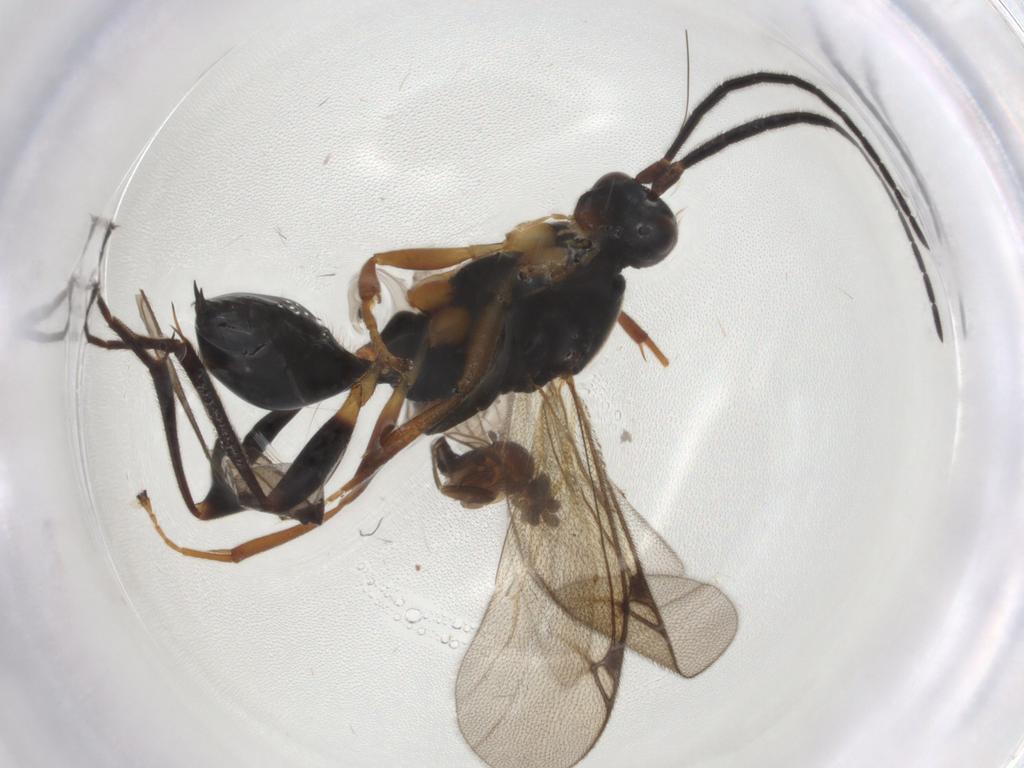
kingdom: Animalia
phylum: Arthropoda
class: Insecta
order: Diptera
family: Phoridae
